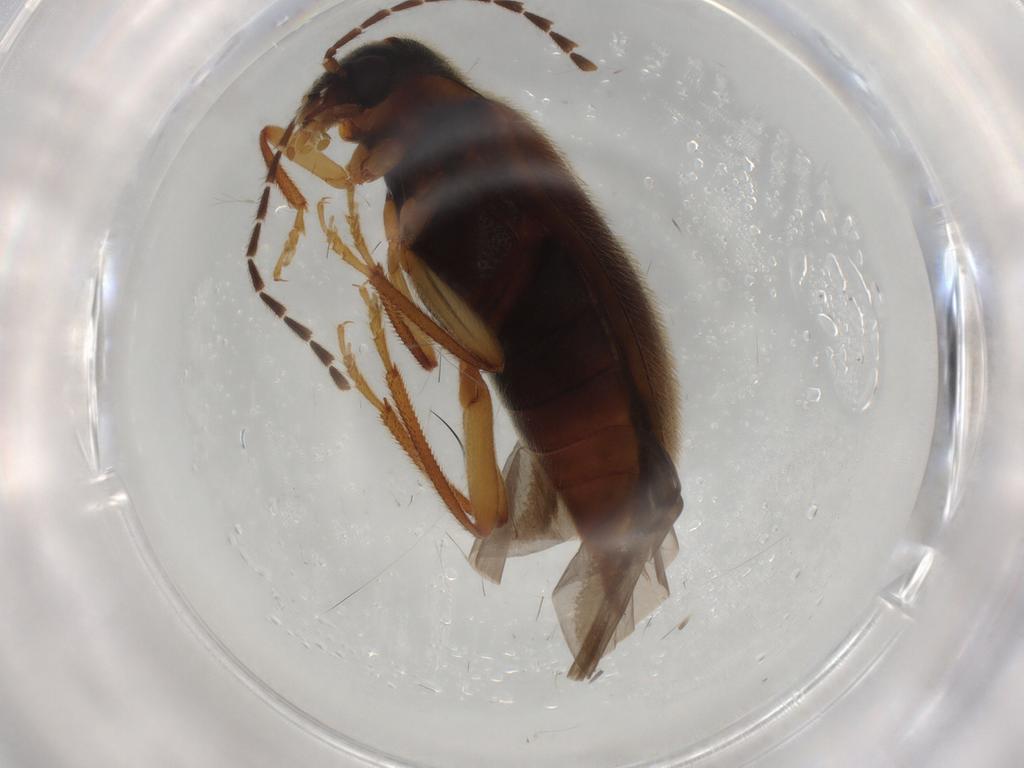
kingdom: Animalia
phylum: Arthropoda
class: Insecta
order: Coleoptera
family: Ptilodactylidae
